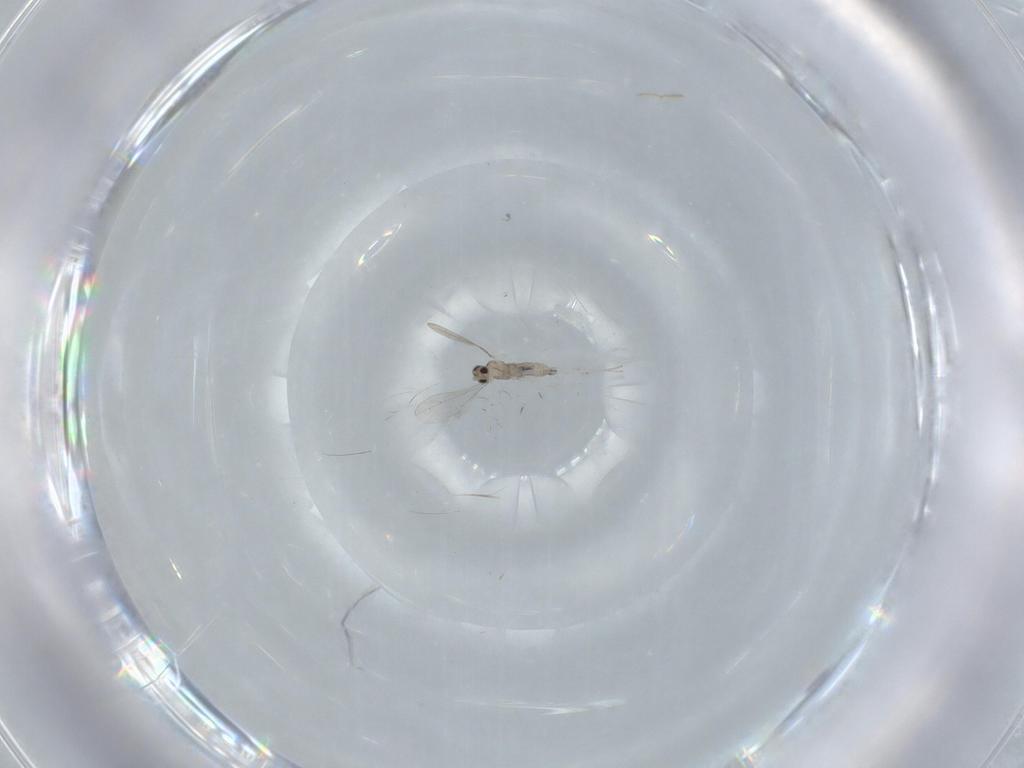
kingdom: Animalia
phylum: Arthropoda
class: Insecta
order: Diptera
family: Cecidomyiidae
